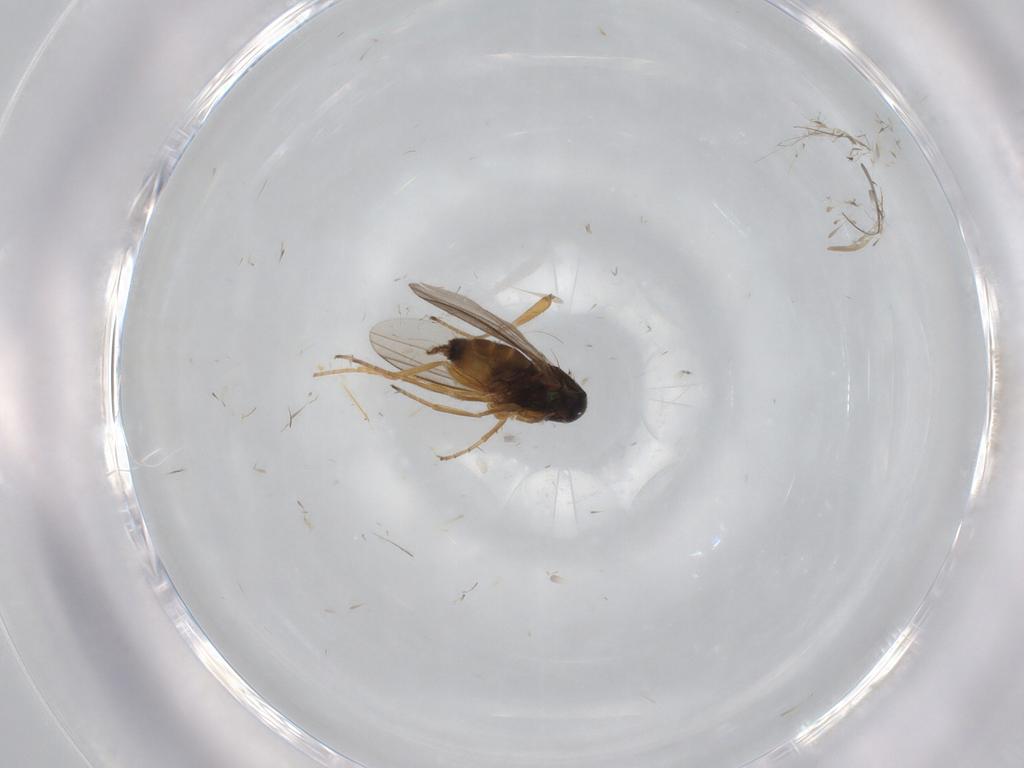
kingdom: Animalia
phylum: Arthropoda
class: Insecta
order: Diptera
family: Dolichopodidae
